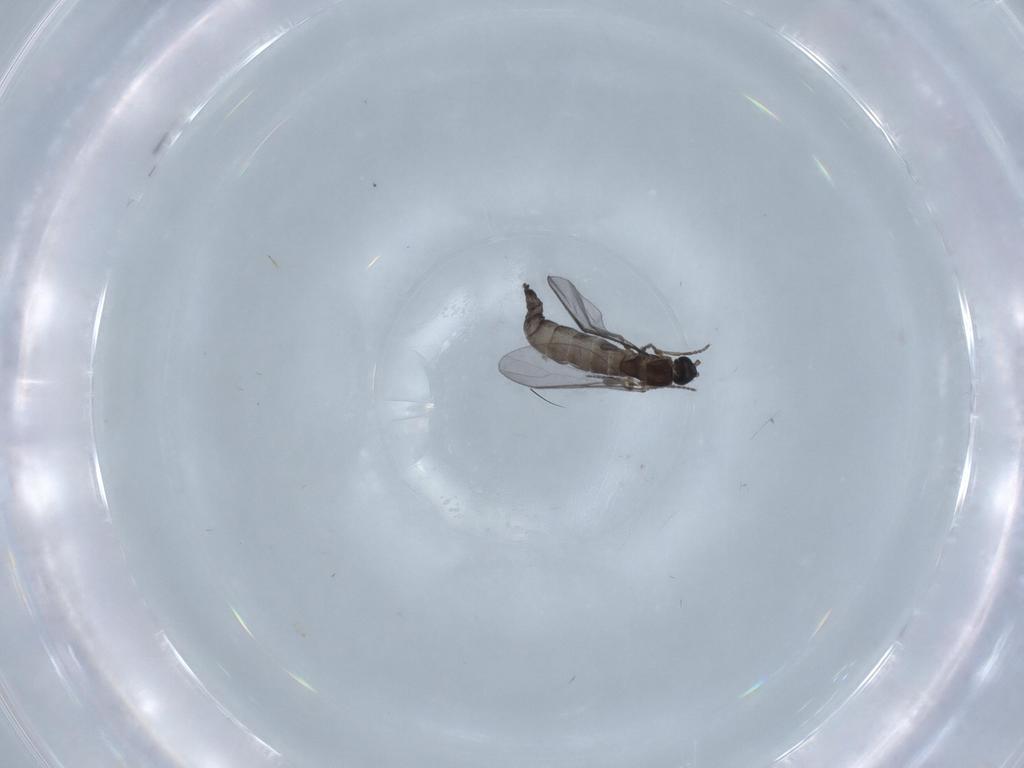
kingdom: Animalia
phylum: Arthropoda
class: Insecta
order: Diptera
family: Sciaridae
